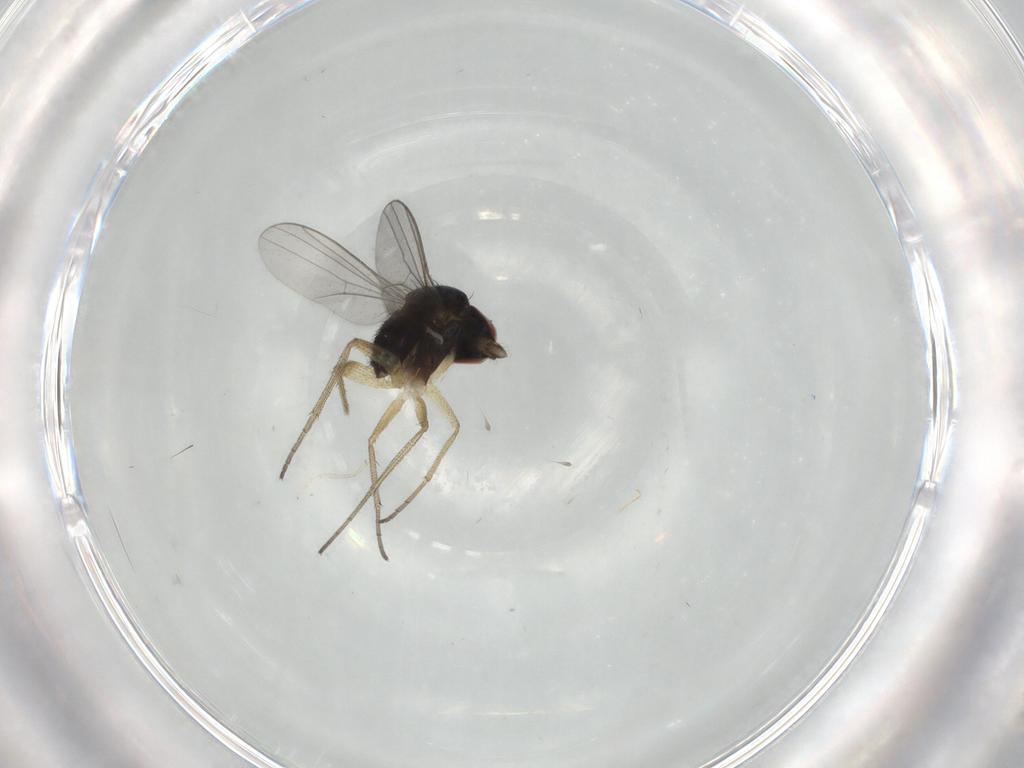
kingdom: Animalia
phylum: Arthropoda
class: Insecta
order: Diptera
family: Dolichopodidae
